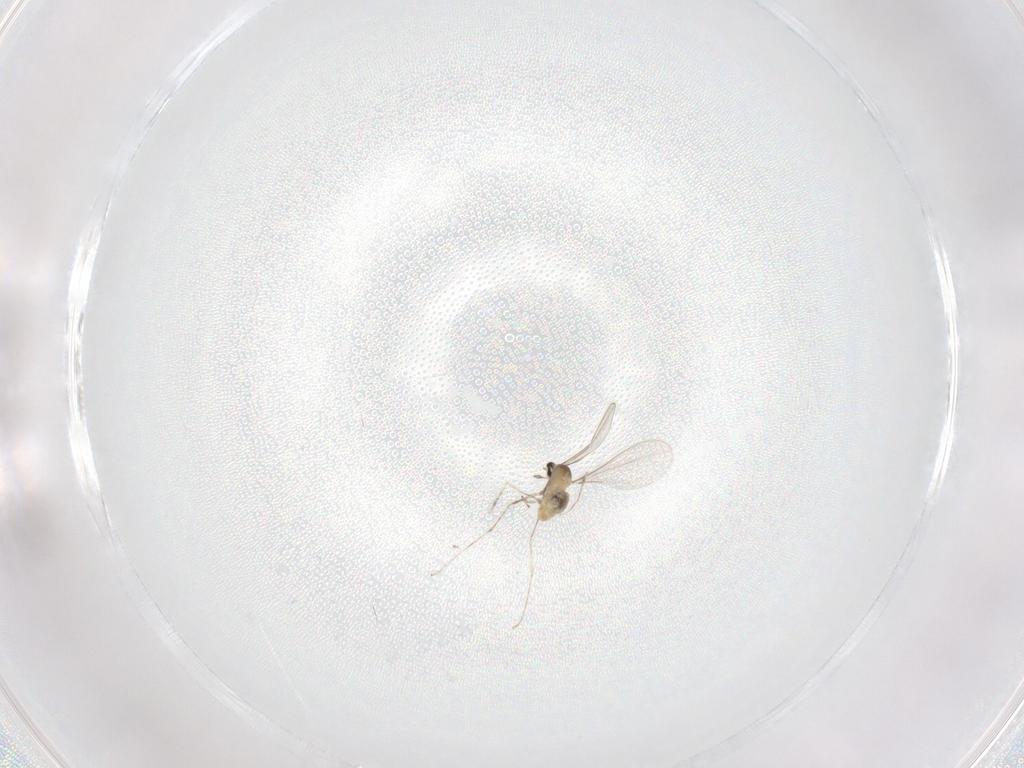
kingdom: Animalia
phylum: Arthropoda
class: Insecta
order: Diptera
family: Cecidomyiidae
